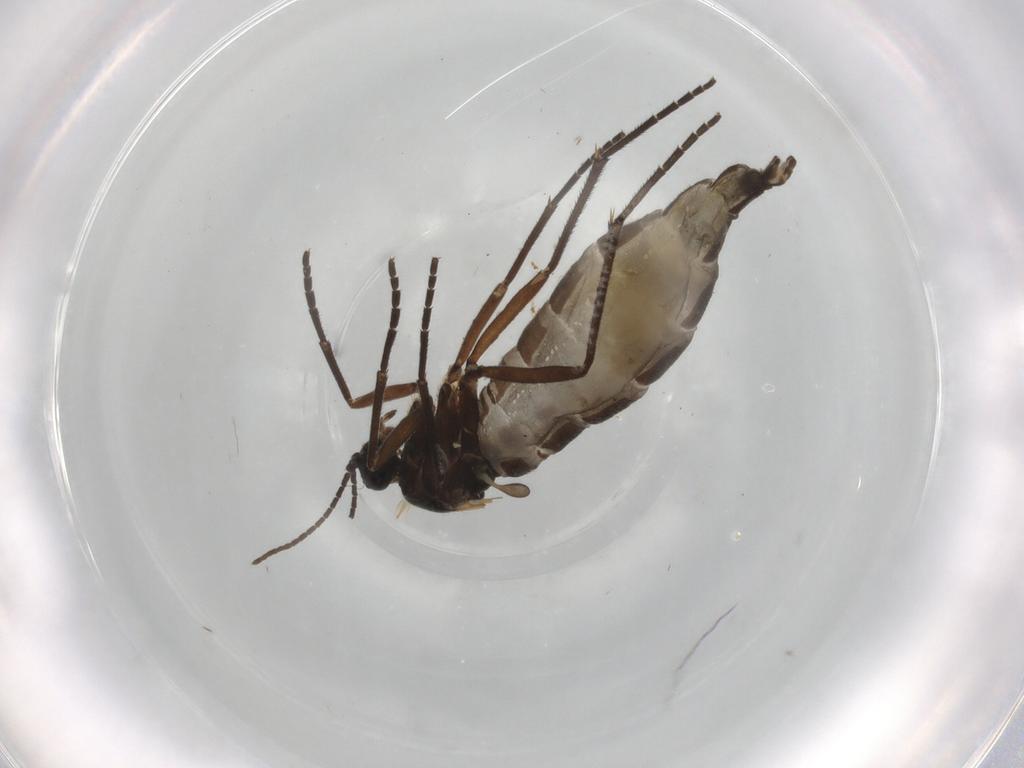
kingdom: Animalia
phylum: Arthropoda
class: Insecta
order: Diptera
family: Sciaridae
